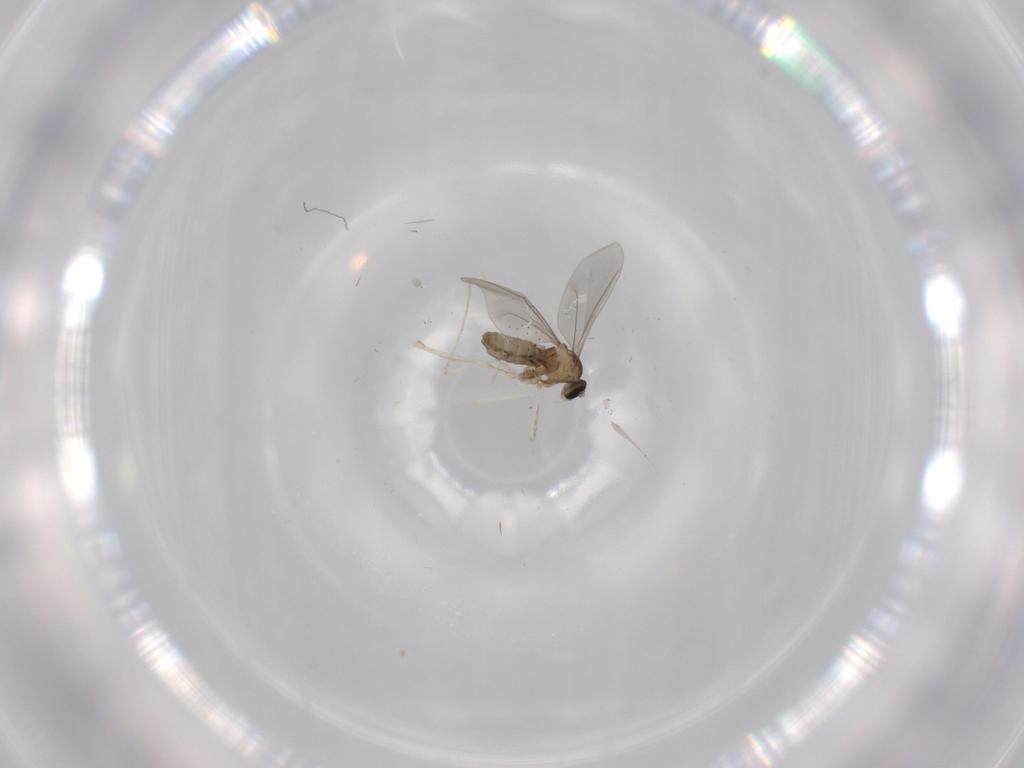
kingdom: Animalia
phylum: Arthropoda
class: Insecta
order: Diptera
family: Cecidomyiidae
